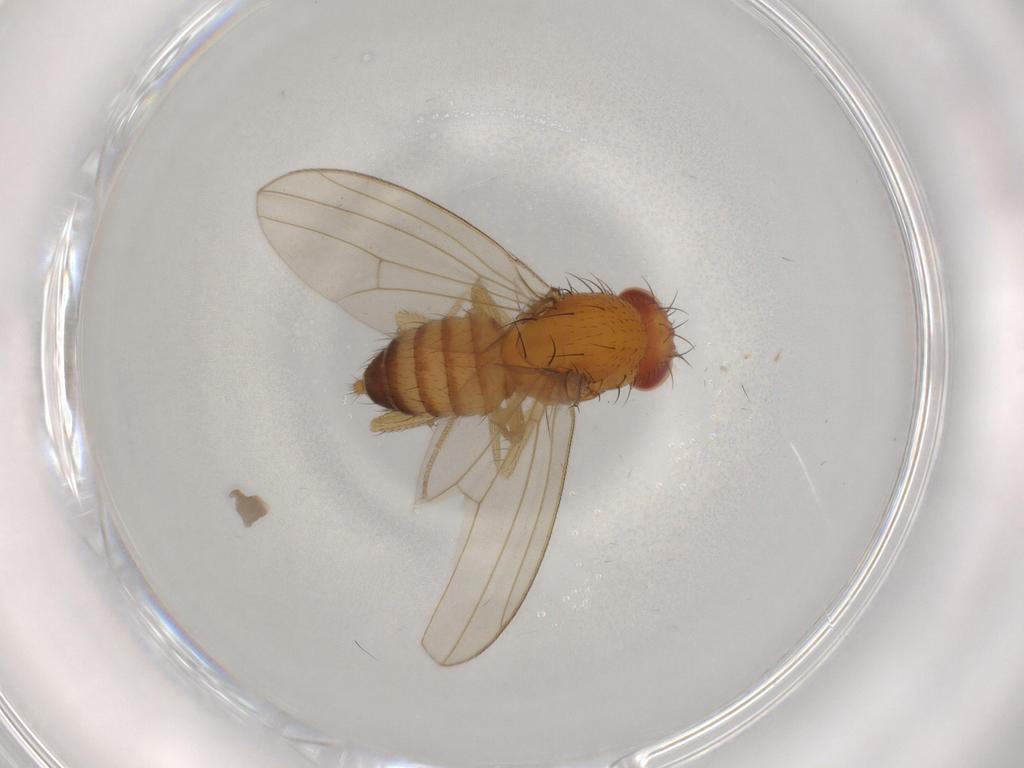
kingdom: Animalia
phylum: Arthropoda
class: Insecta
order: Diptera
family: Drosophilidae
